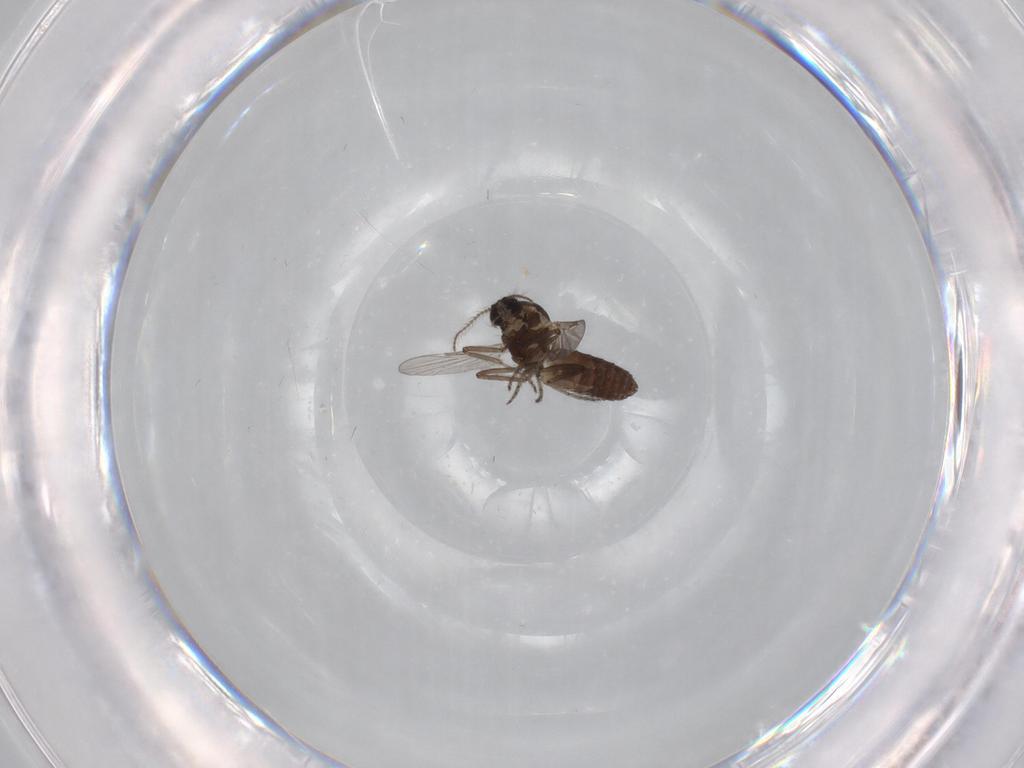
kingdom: Animalia
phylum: Arthropoda
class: Insecta
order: Diptera
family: Ceratopogonidae
